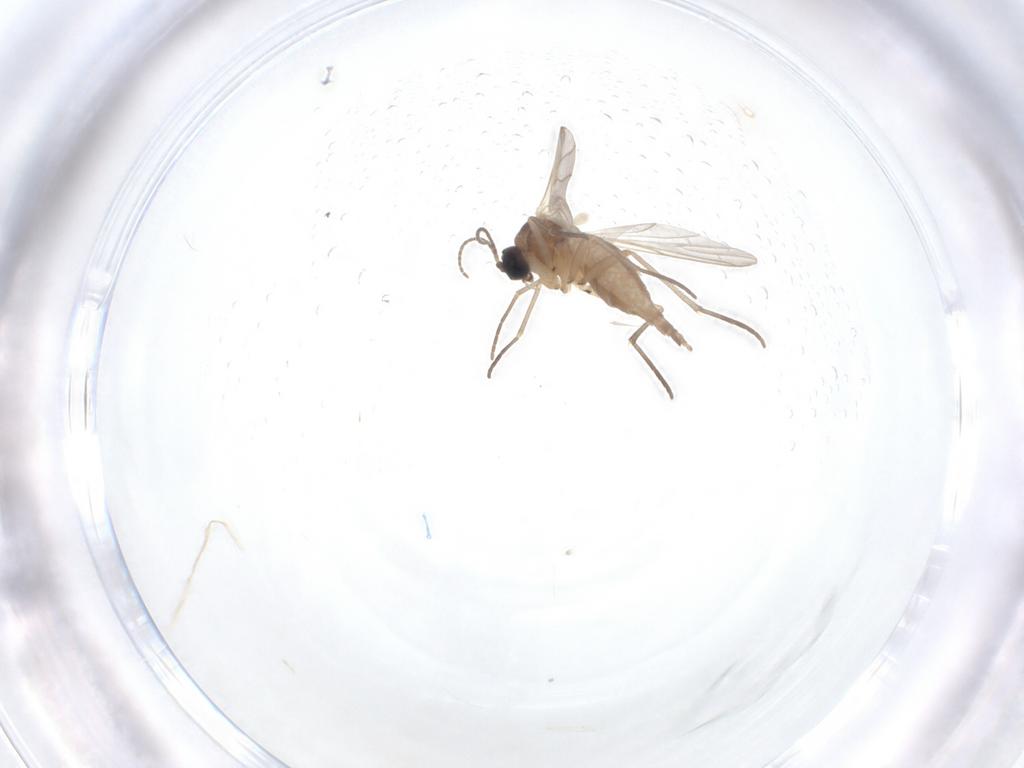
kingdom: Animalia
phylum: Arthropoda
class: Insecta
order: Diptera
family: Sciaridae
